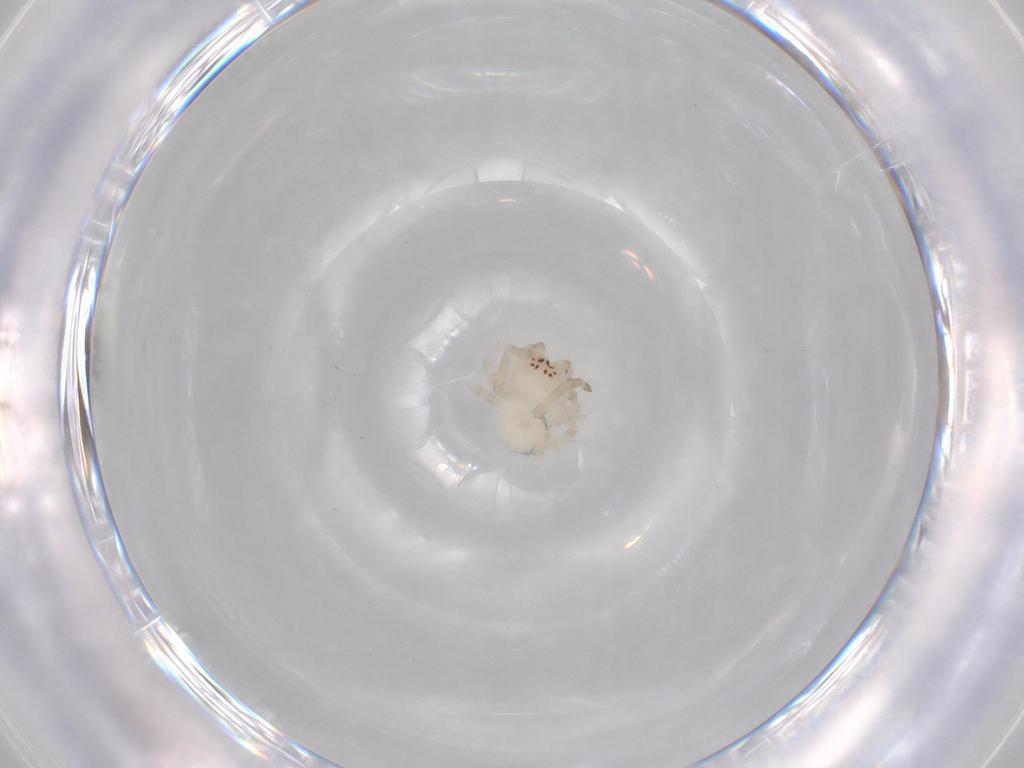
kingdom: Animalia
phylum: Arthropoda
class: Arachnida
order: Araneae
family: Uloboridae
